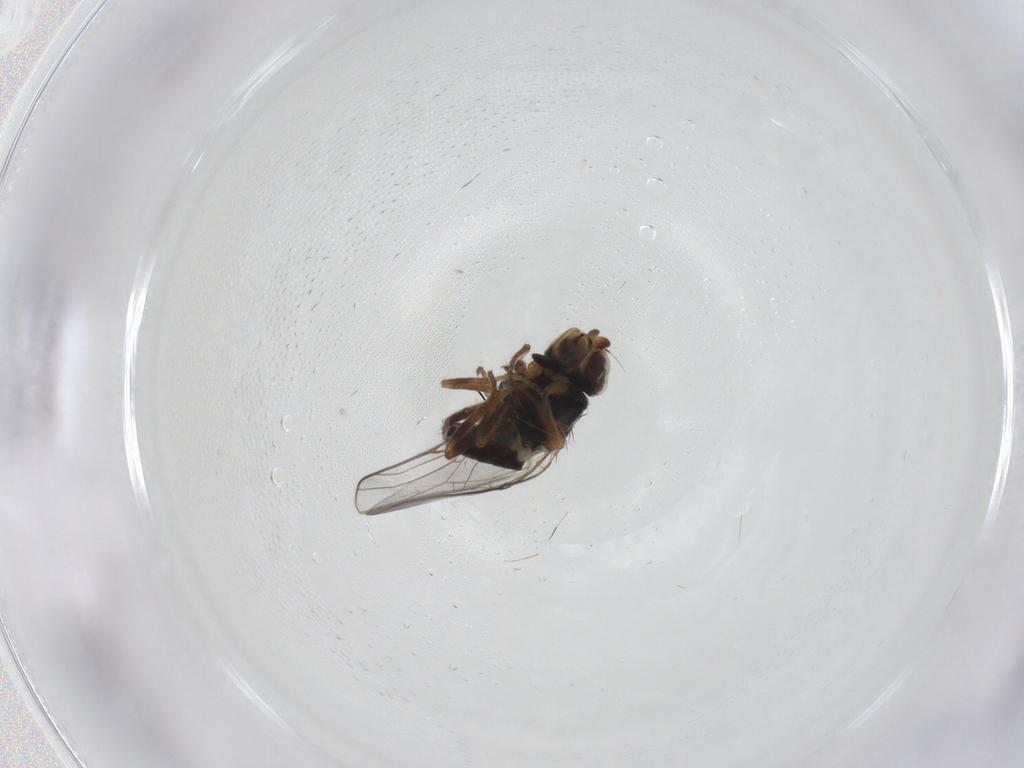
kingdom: Animalia
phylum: Arthropoda
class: Insecta
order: Diptera
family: Chloropidae
